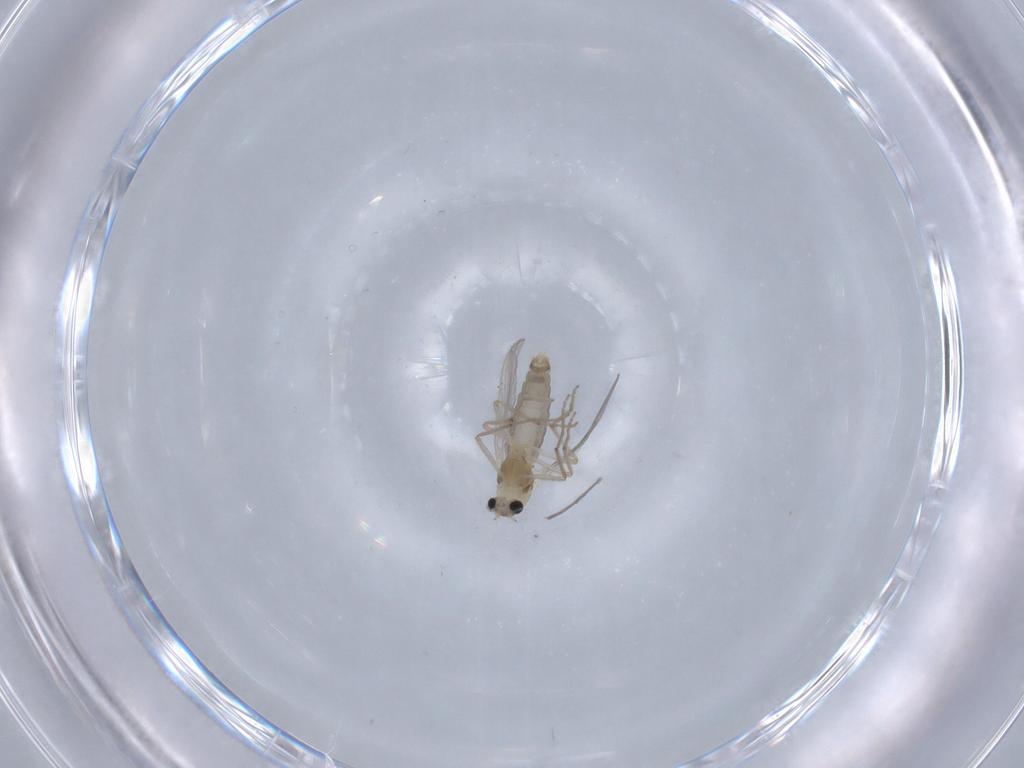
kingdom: Animalia
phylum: Arthropoda
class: Insecta
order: Diptera
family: Chironomidae
